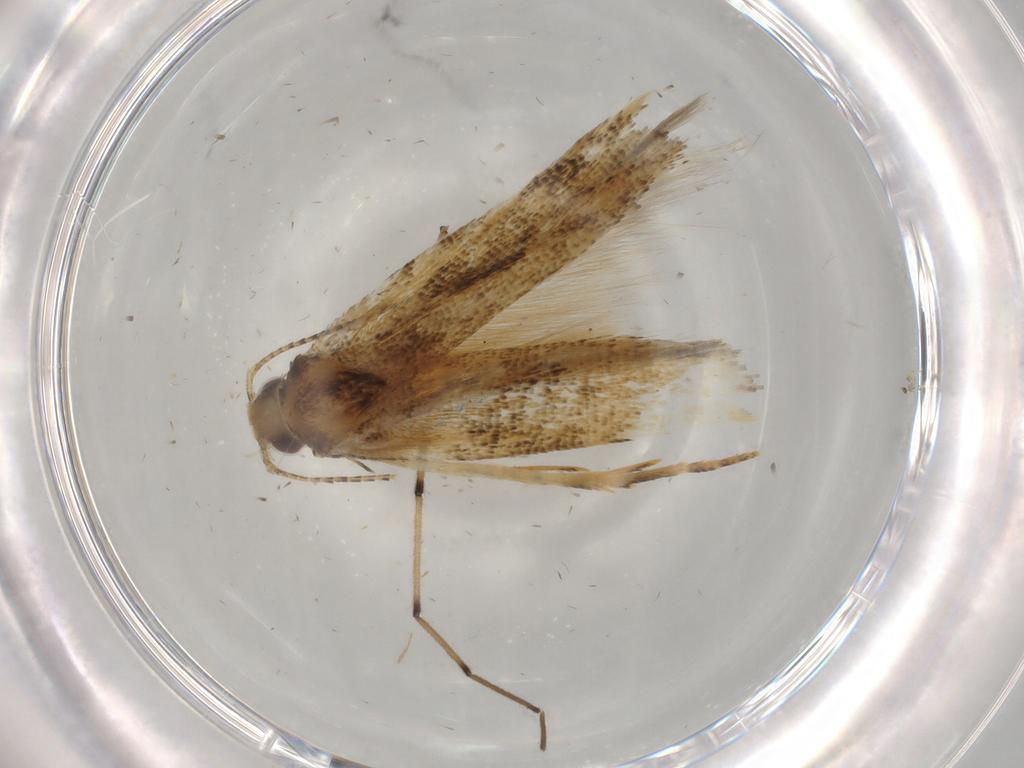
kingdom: Animalia
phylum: Arthropoda
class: Insecta
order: Lepidoptera
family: Gelechiidae
